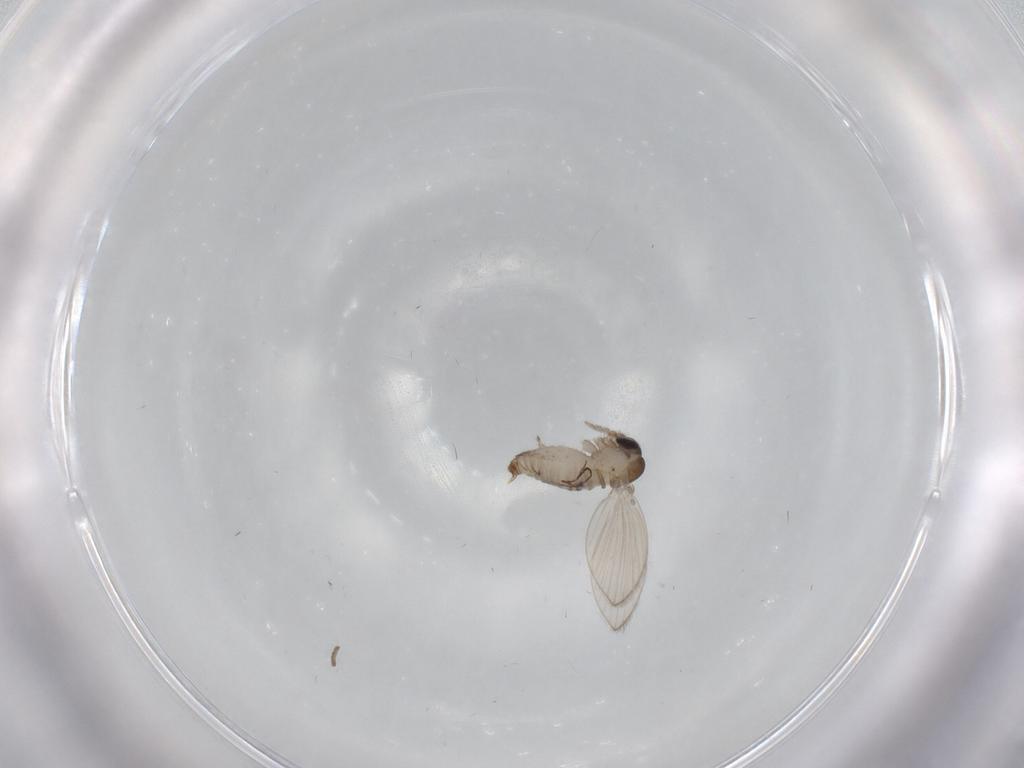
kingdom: Animalia
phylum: Arthropoda
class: Insecta
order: Diptera
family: Psychodidae
